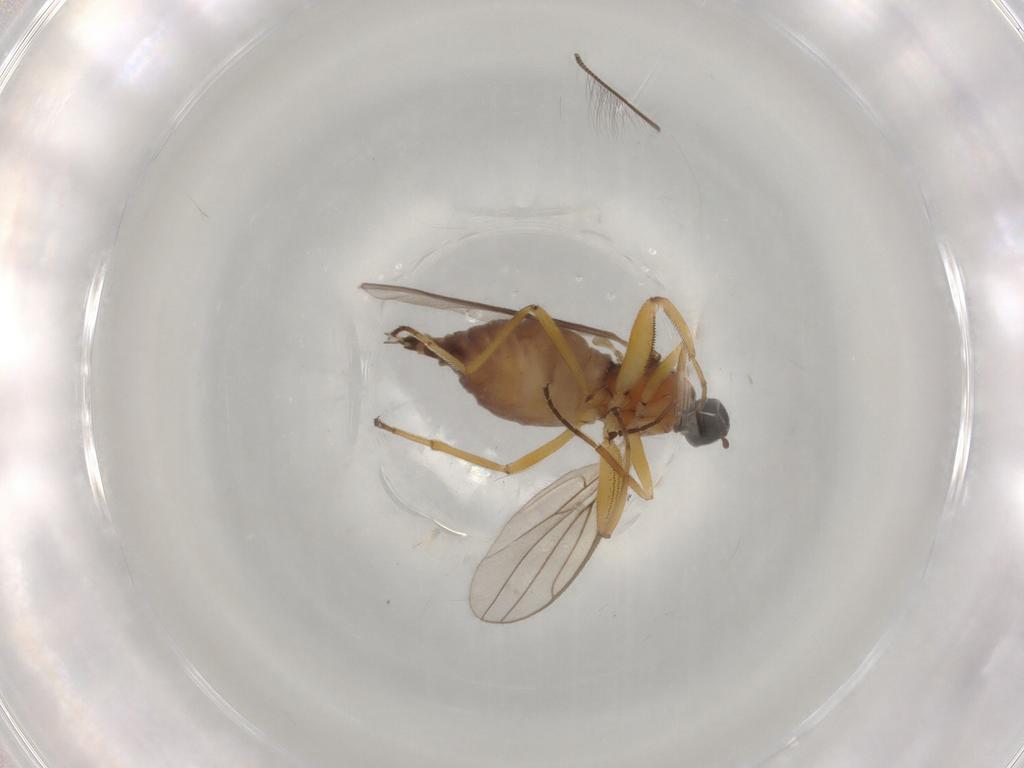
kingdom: Animalia
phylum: Arthropoda
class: Insecta
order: Diptera
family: Hybotidae
